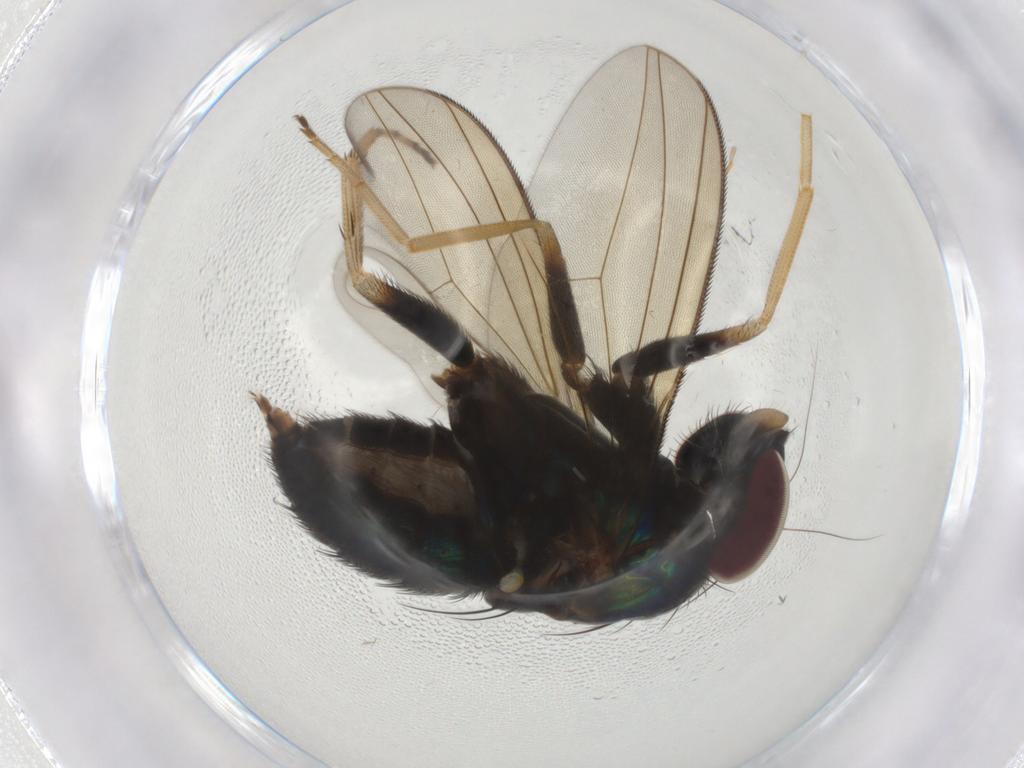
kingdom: Animalia
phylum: Arthropoda
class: Insecta
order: Diptera
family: Dolichopodidae
